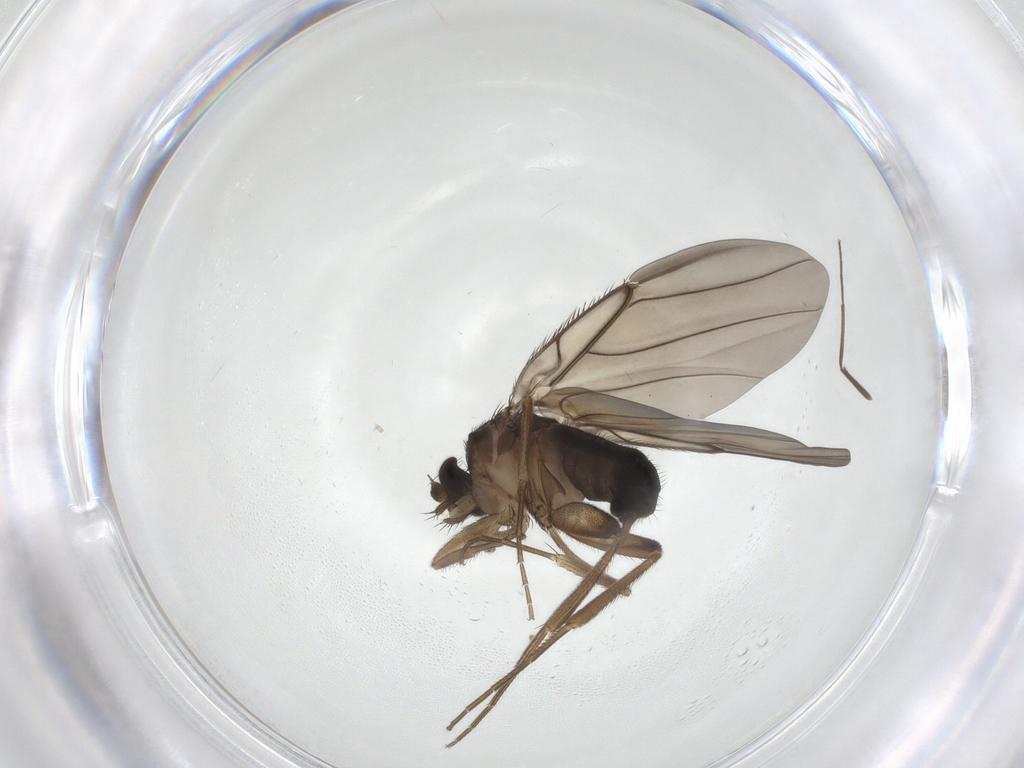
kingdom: Animalia
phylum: Arthropoda
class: Insecta
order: Diptera
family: Phoridae
